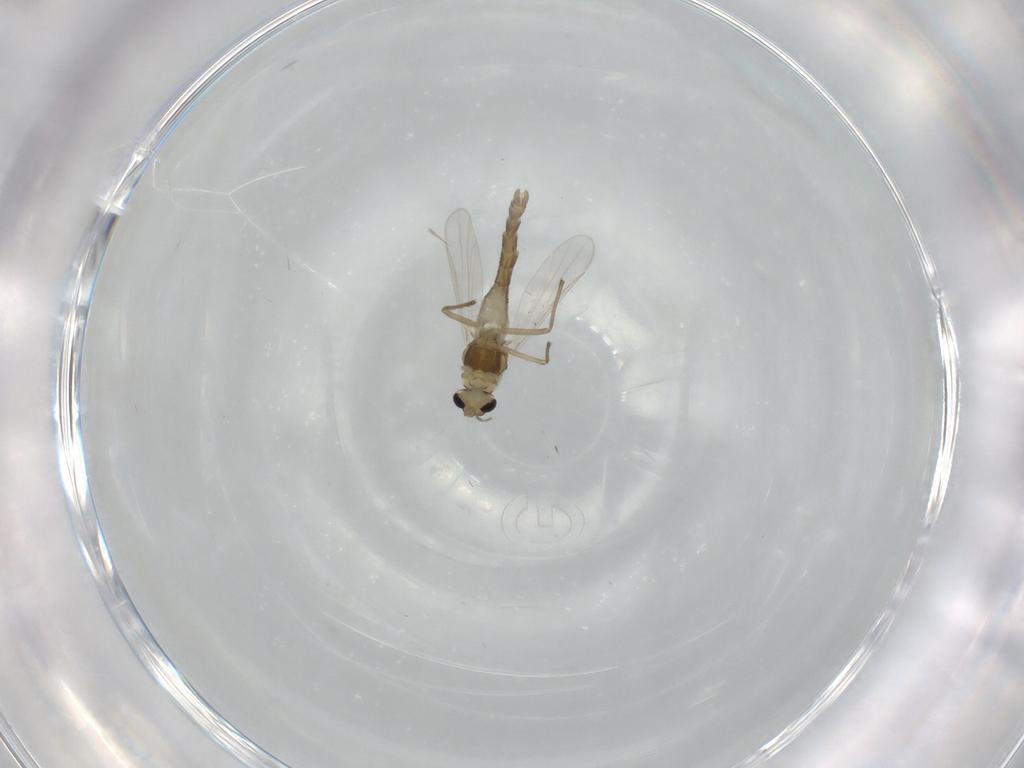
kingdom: Animalia
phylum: Arthropoda
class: Insecta
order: Diptera
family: Chironomidae
